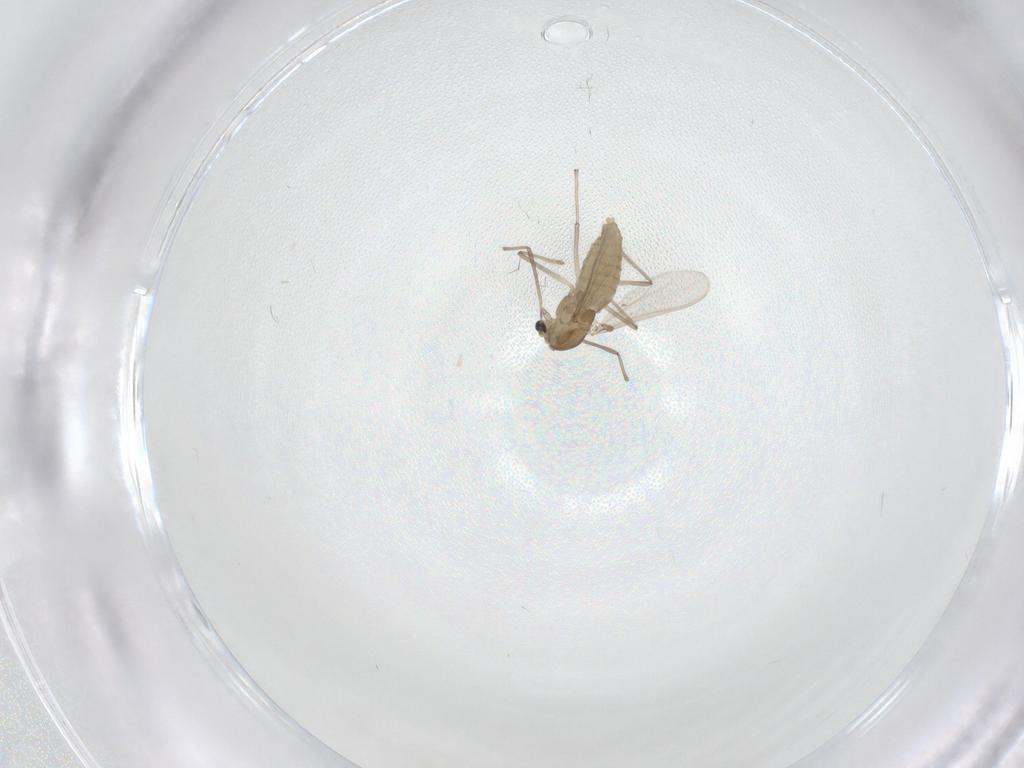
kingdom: Animalia
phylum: Arthropoda
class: Insecta
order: Diptera
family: Chironomidae
